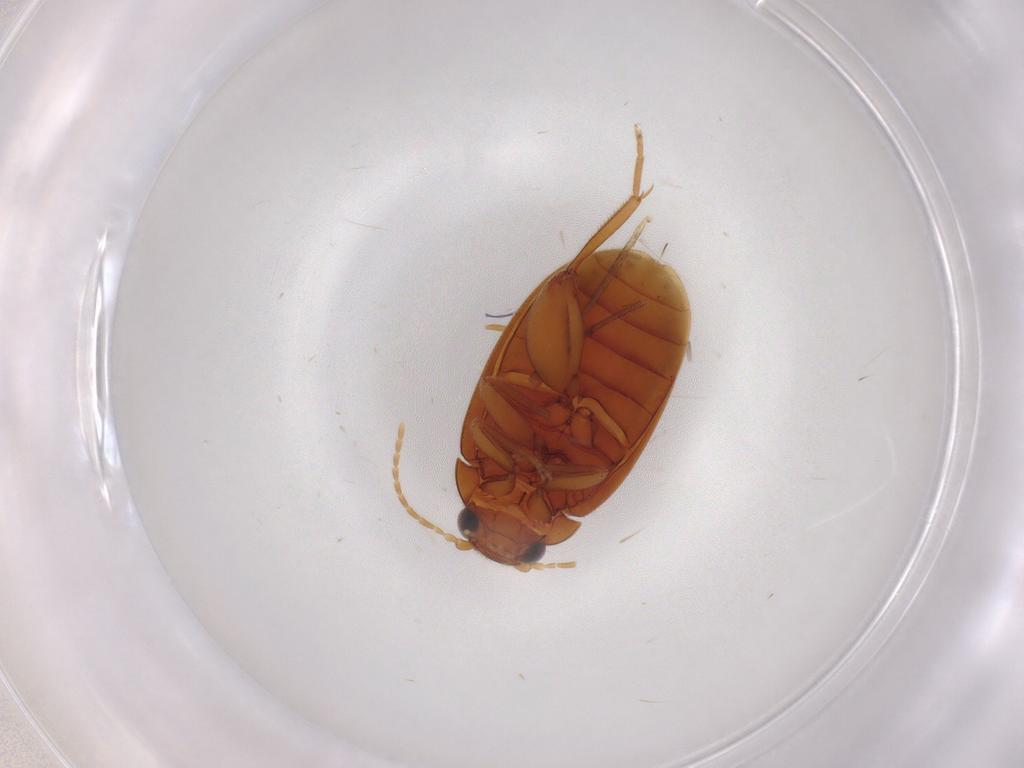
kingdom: Animalia
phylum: Arthropoda
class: Insecta
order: Coleoptera
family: Scirtidae
